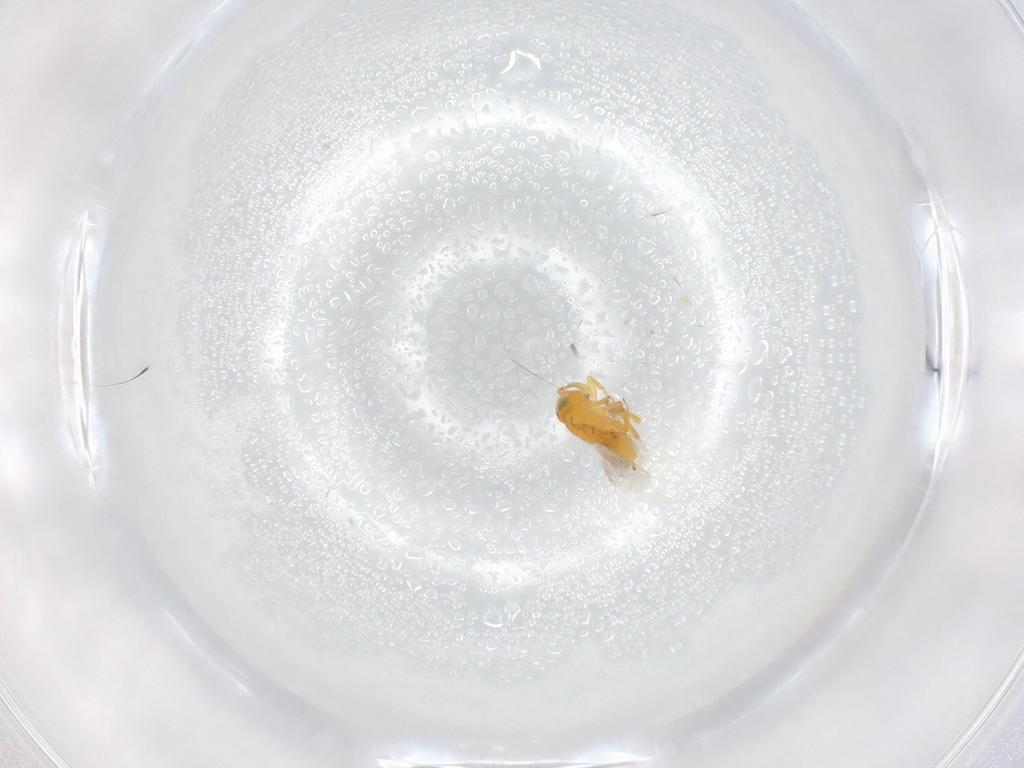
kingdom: Animalia
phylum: Arthropoda
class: Insecta
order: Hymenoptera
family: Encyrtidae
